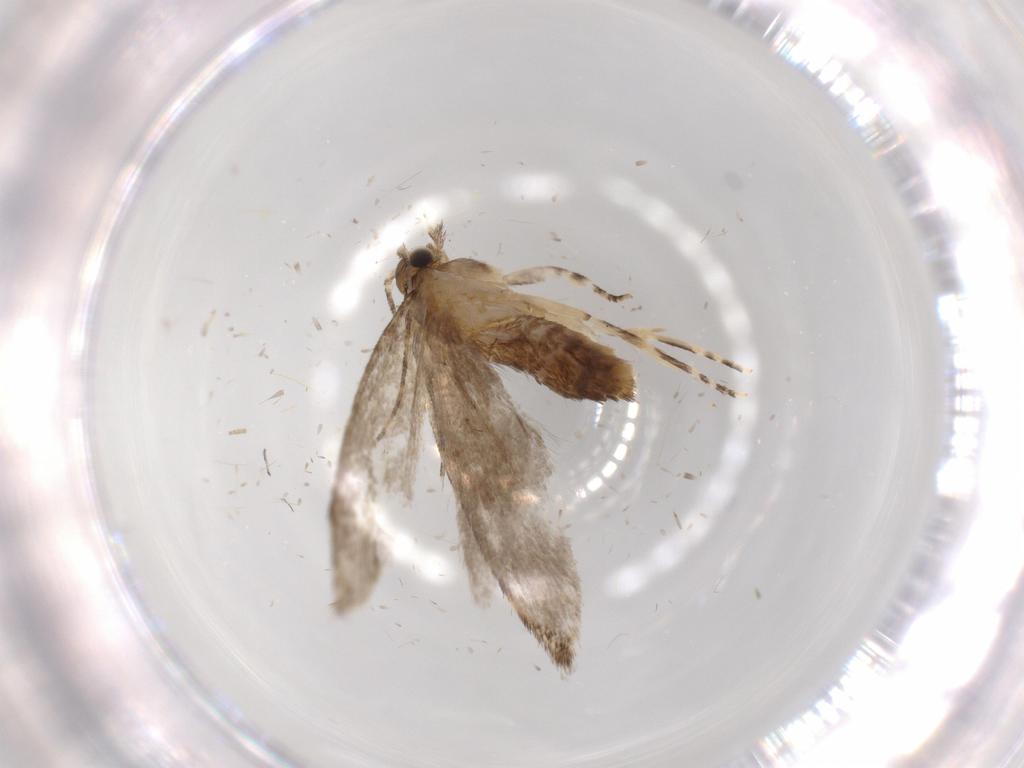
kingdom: Animalia
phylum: Arthropoda
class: Insecta
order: Lepidoptera
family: Tineidae
